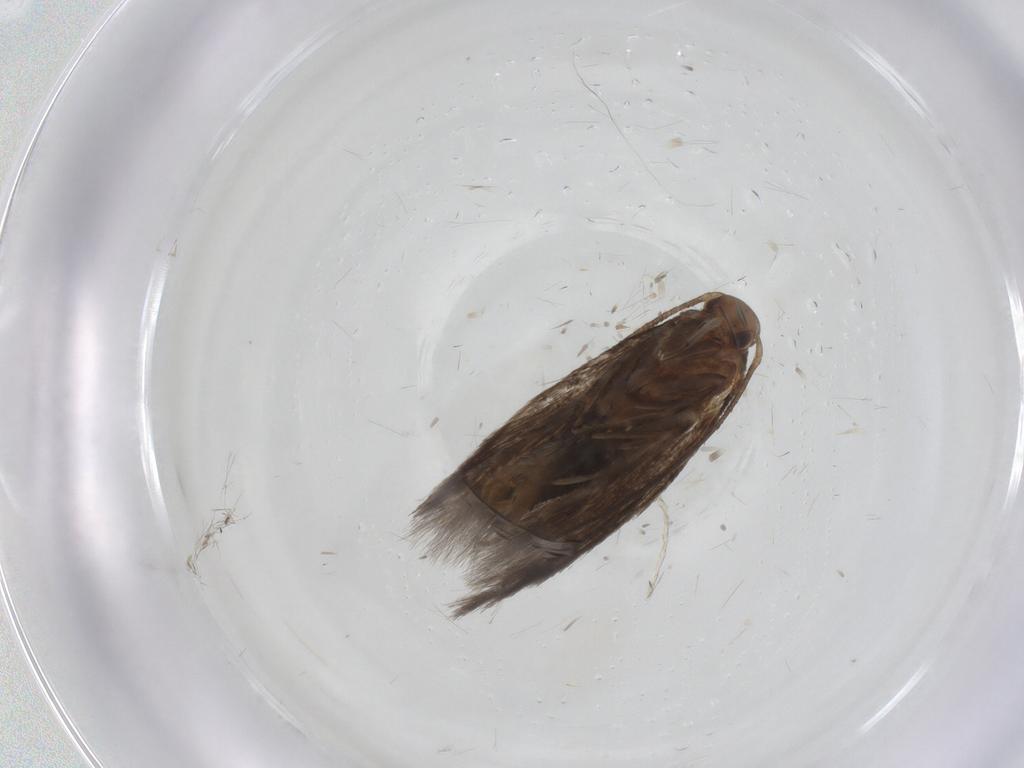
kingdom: Animalia
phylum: Arthropoda
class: Insecta
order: Lepidoptera
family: Elachistidae
